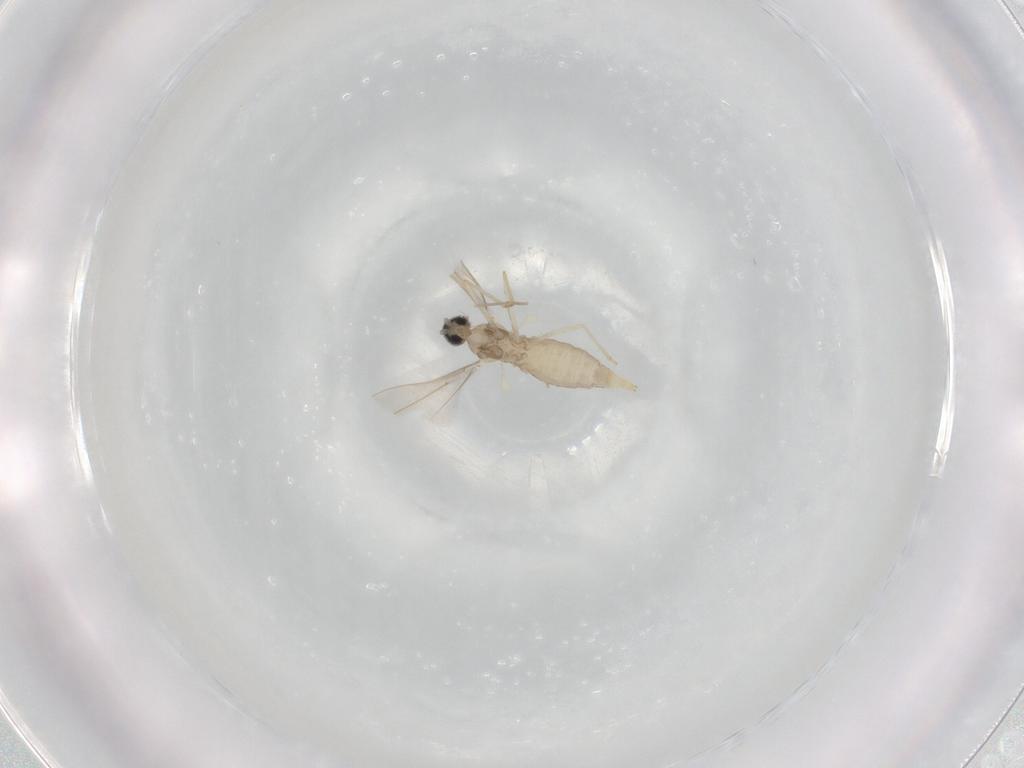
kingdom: Animalia
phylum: Arthropoda
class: Insecta
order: Diptera
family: Cecidomyiidae
